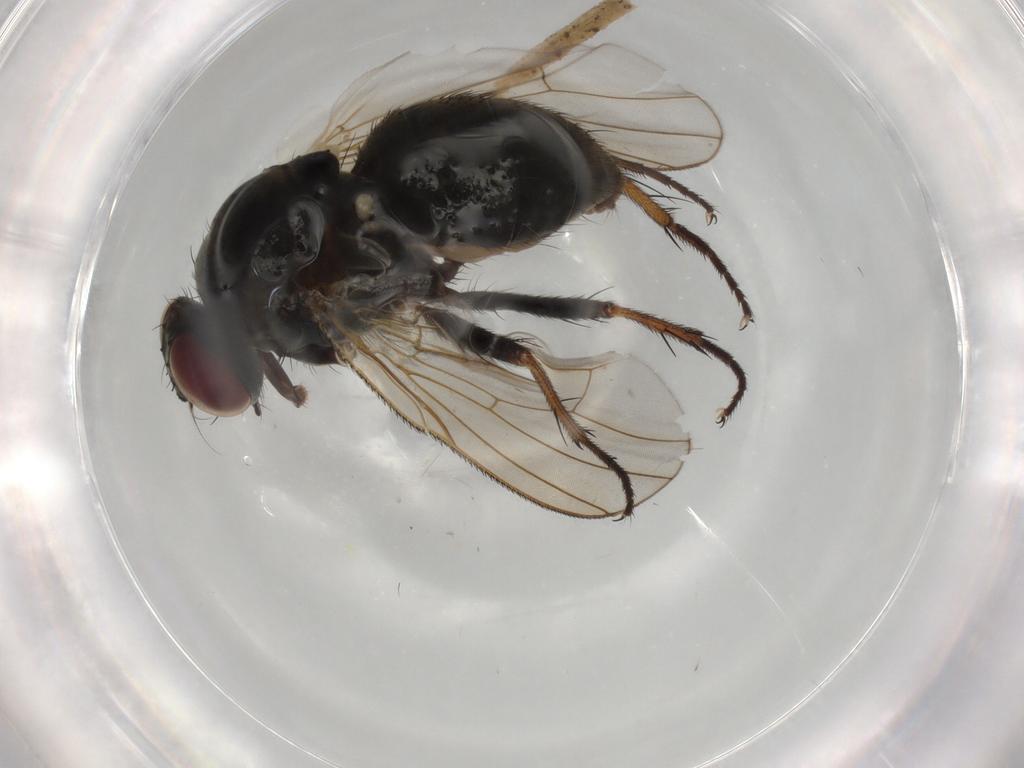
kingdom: Animalia
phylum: Arthropoda
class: Insecta
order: Diptera
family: Muscidae
